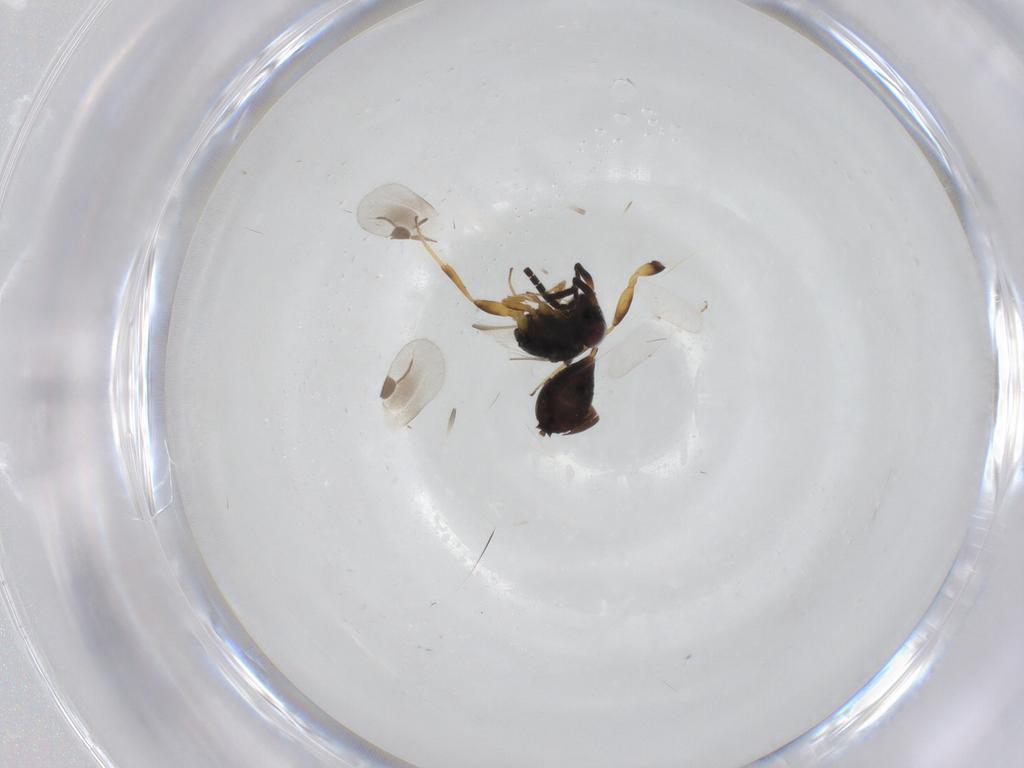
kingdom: Animalia
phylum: Arthropoda
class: Insecta
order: Hymenoptera
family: Megaspilidae
